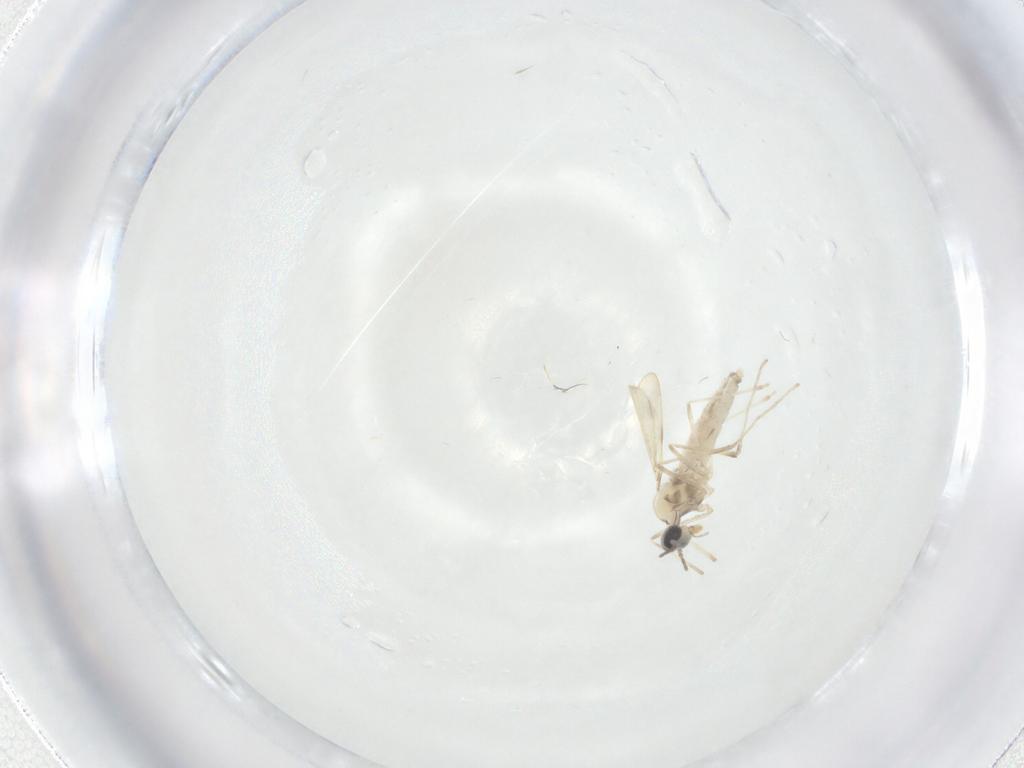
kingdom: Animalia
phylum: Arthropoda
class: Insecta
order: Diptera
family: Cecidomyiidae
